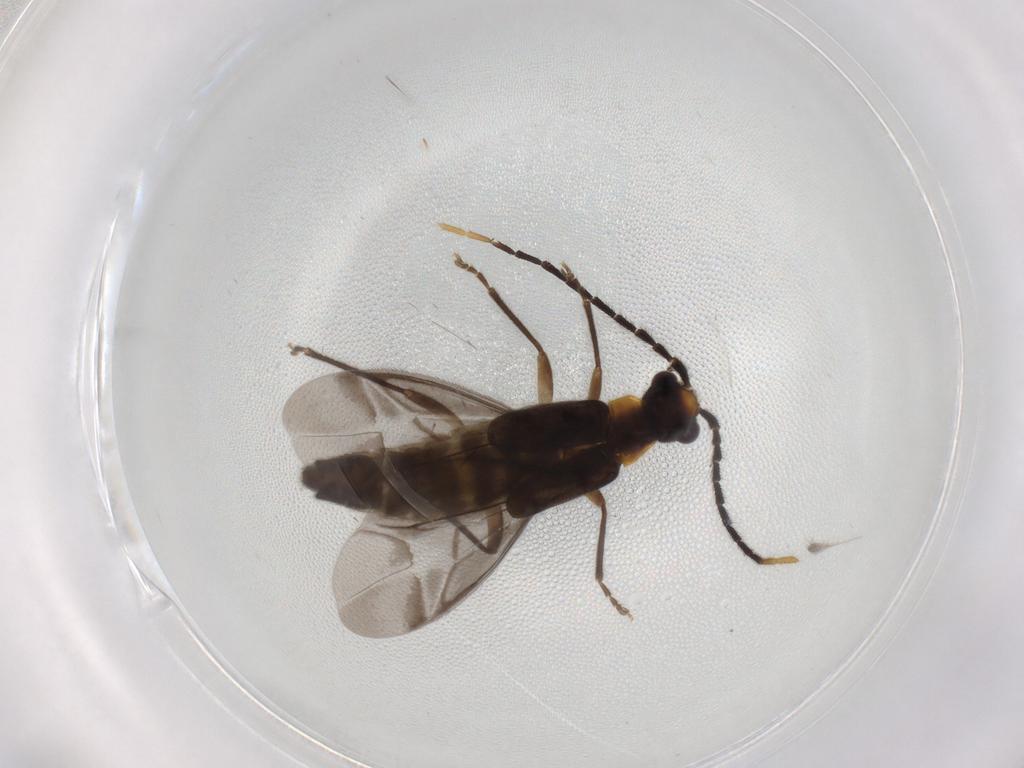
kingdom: Animalia
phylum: Arthropoda
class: Insecta
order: Coleoptera
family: Cantharidae
